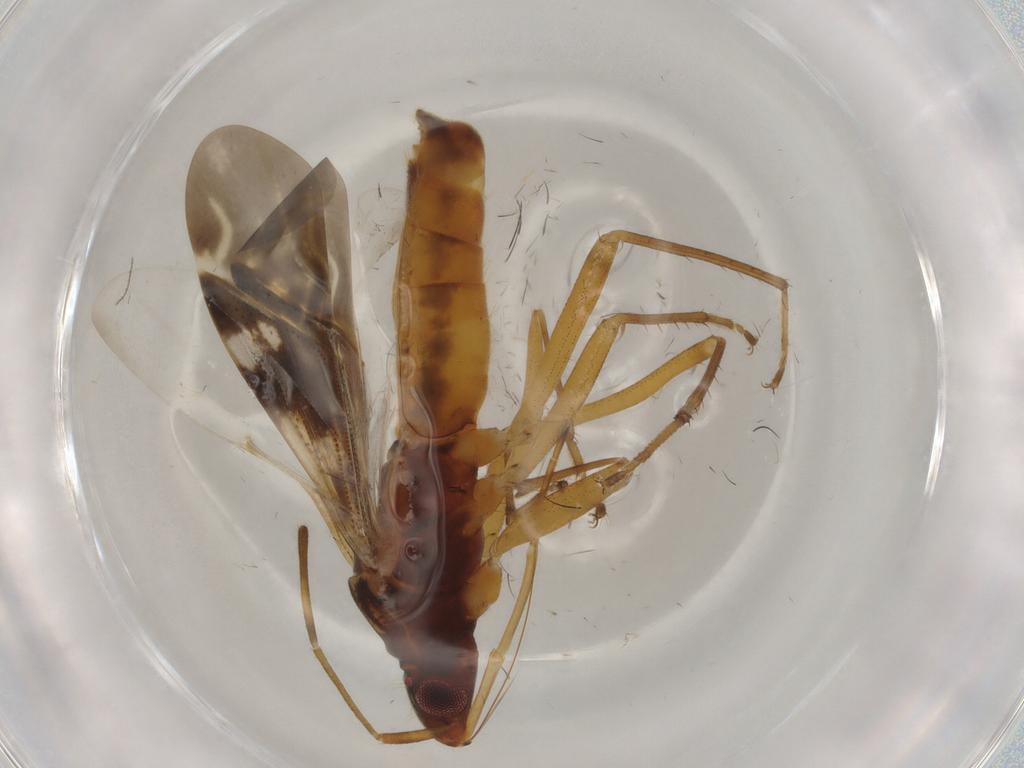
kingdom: Animalia
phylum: Arthropoda
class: Insecta
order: Hemiptera
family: Rhyparochromidae
